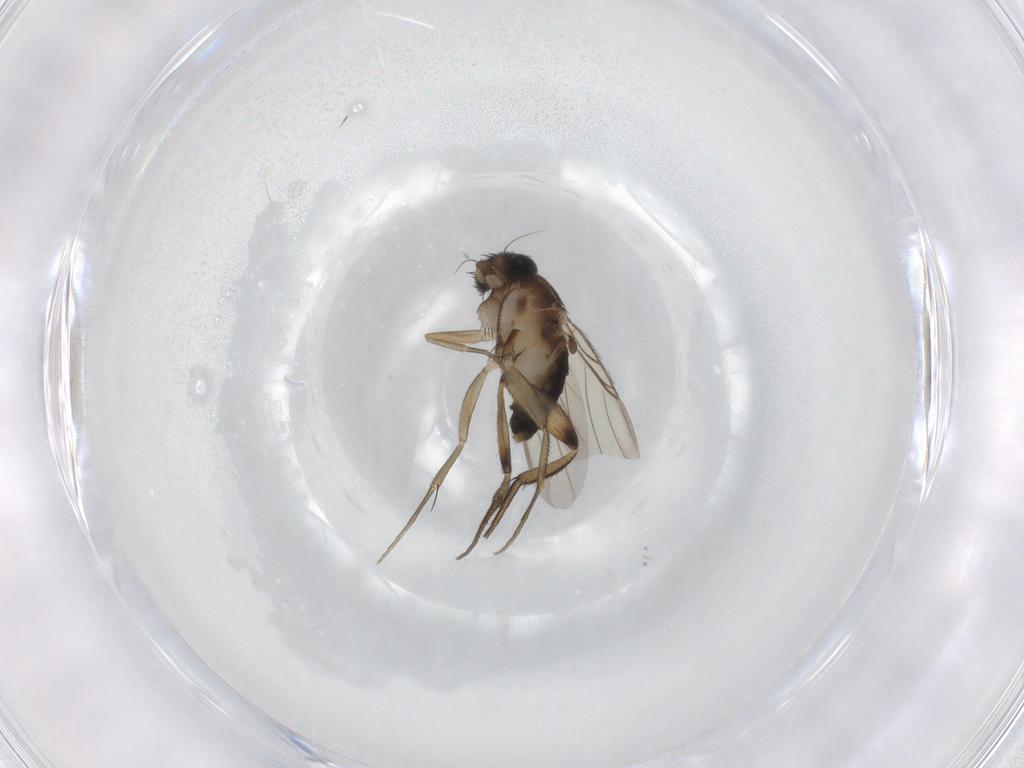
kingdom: Animalia
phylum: Arthropoda
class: Insecta
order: Diptera
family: Phoridae
